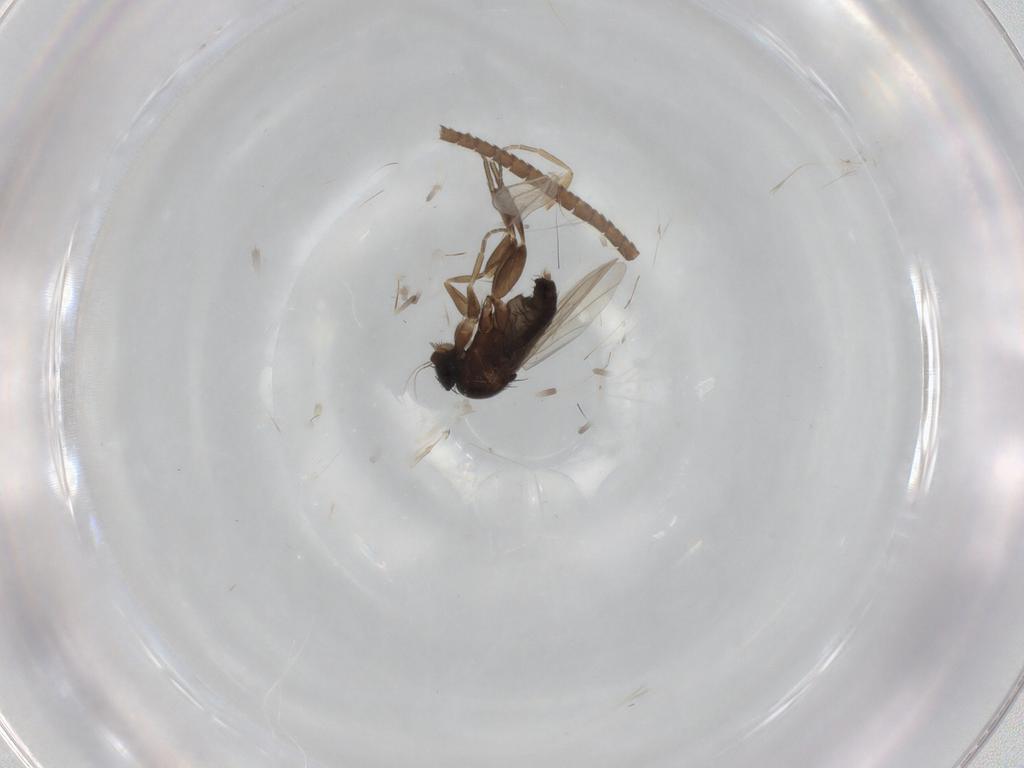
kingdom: Animalia
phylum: Arthropoda
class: Insecta
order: Diptera
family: Phoridae
